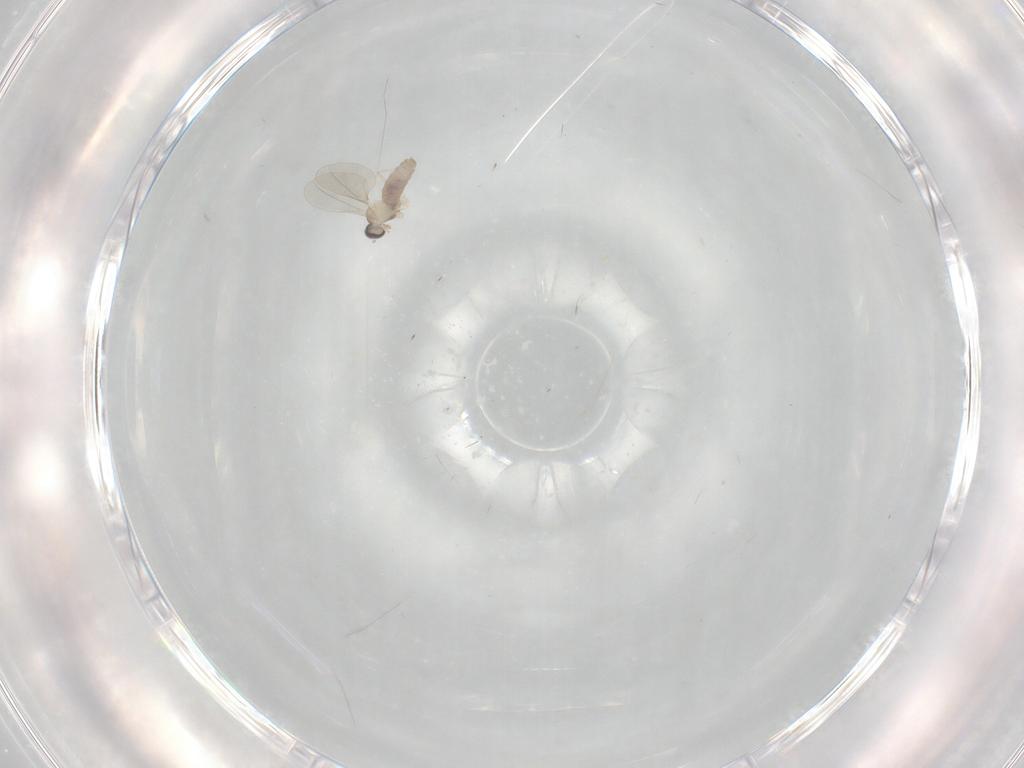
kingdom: Animalia
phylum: Arthropoda
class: Insecta
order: Diptera
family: Cecidomyiidae
